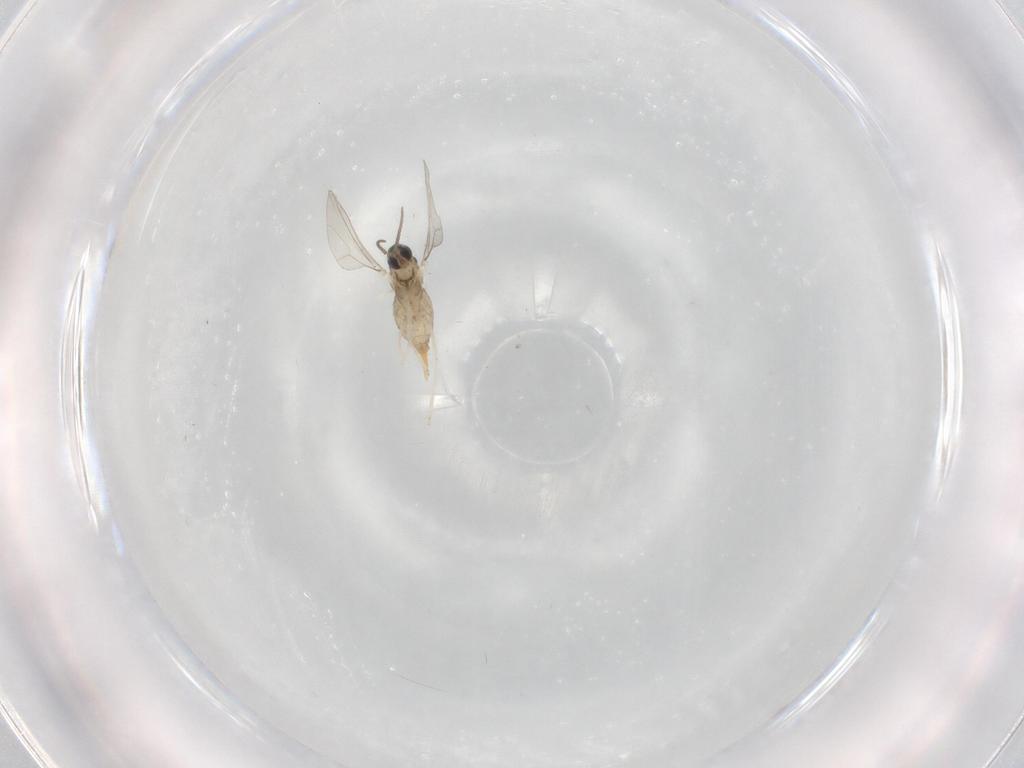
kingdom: Animalia
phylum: Arthropoda
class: Insecta
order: Diptera
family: Cecidomyiidae
